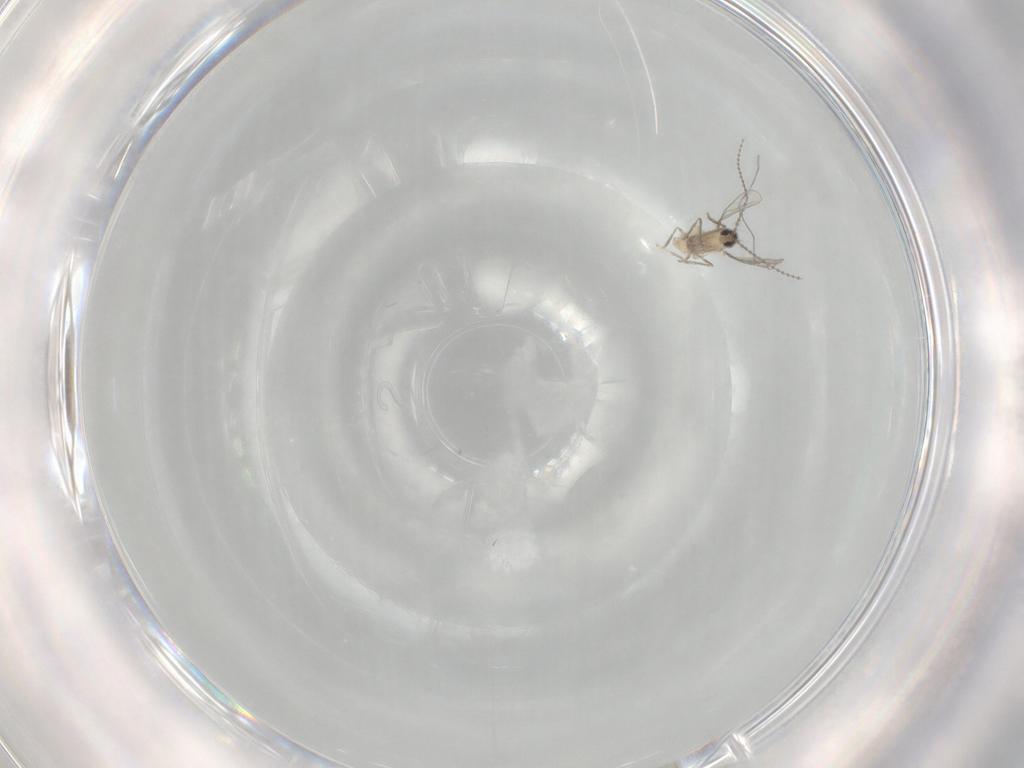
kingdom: Animalia
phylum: Arthropoda
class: Insecta
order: Diptera
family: Cecidomyiidae
